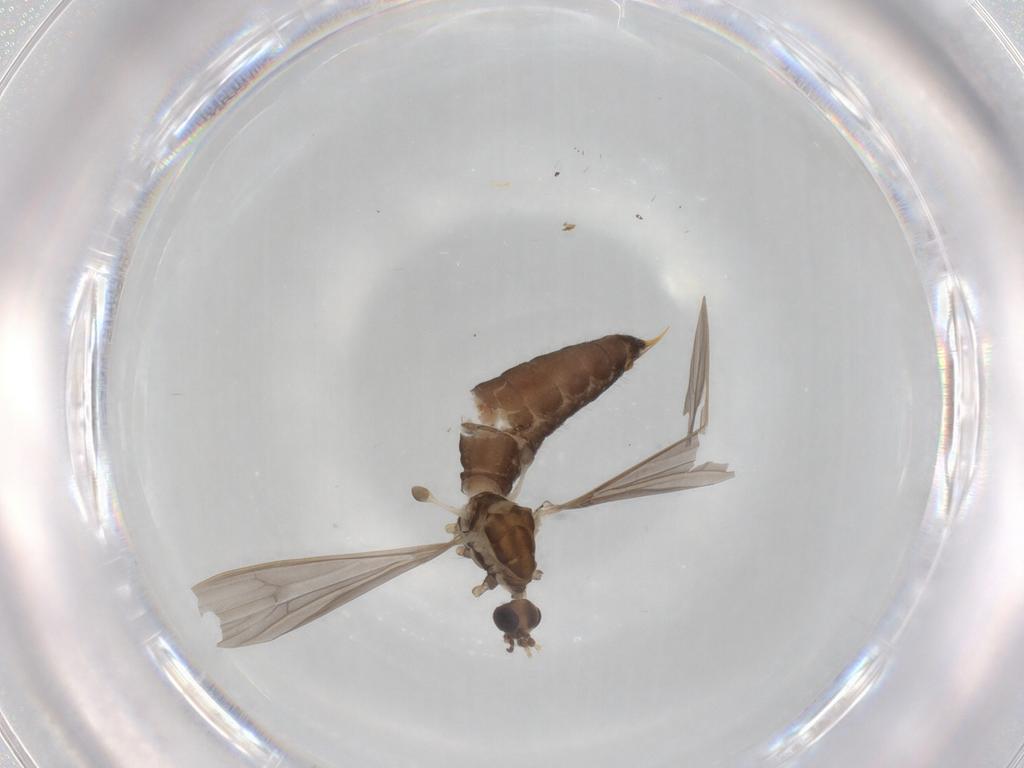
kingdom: Animalia
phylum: Arthropoda
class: Insecta
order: Diptera
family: Limoniidae
